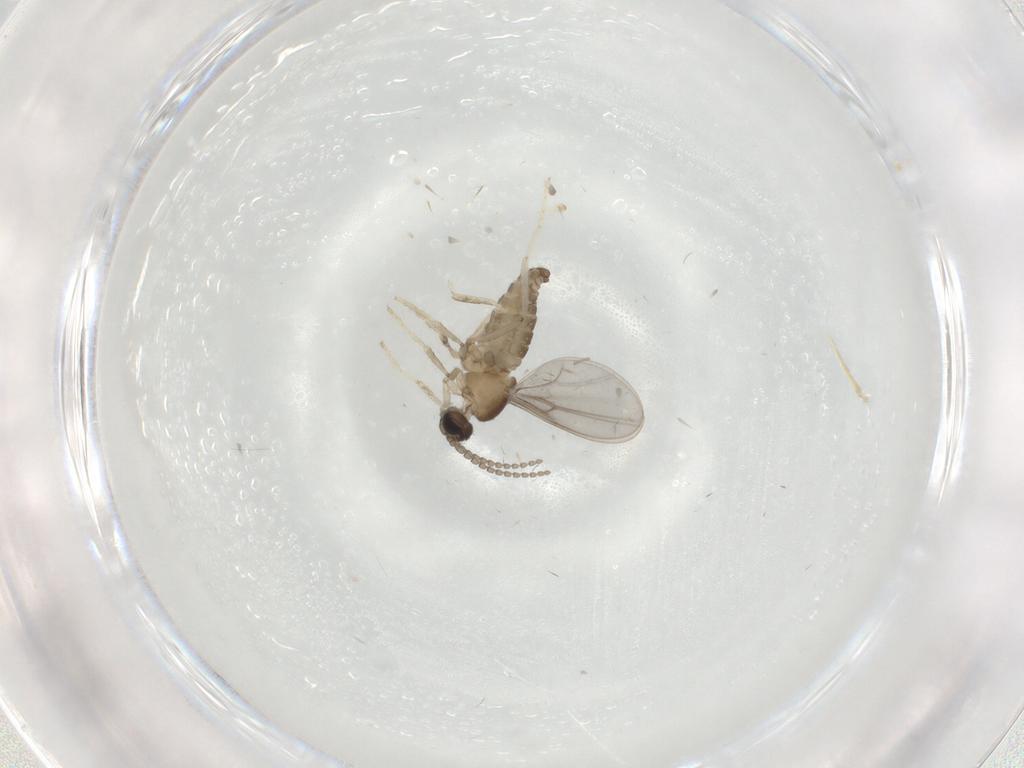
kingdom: Animalia
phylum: Arthropoda
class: Insecta
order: Diptera
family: Cecidomyiidae
